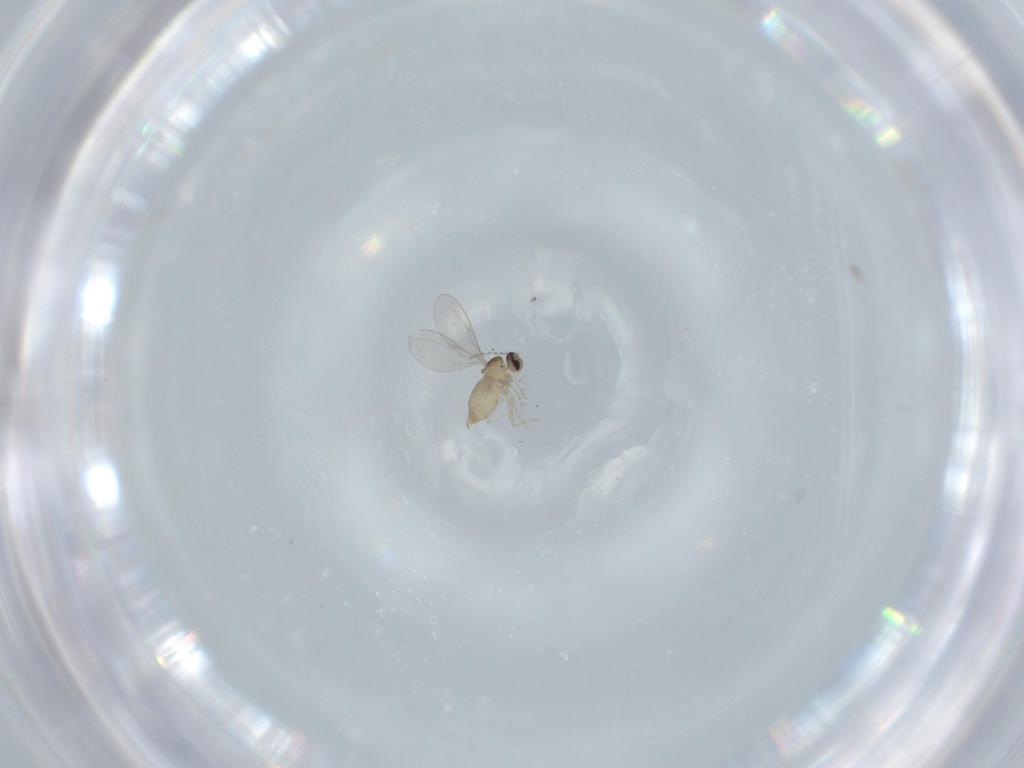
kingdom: Animalia
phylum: Arthropoda
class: Insecta
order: Diptera
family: Cecidomyiidae
